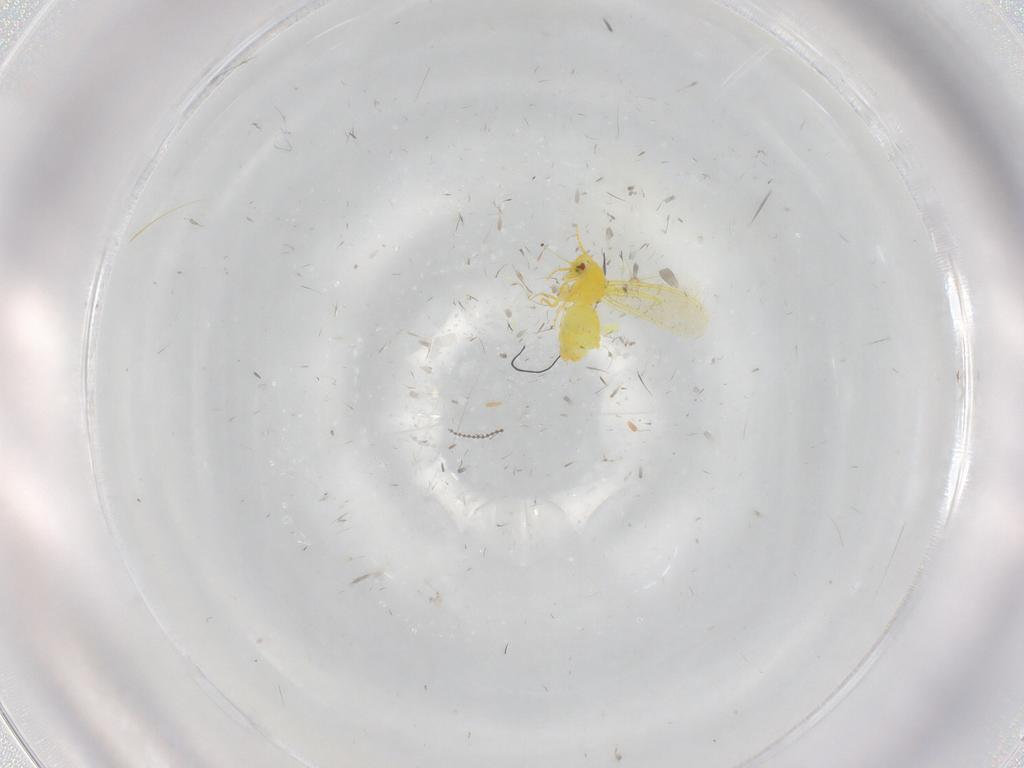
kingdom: Animalia
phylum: Arthropoda
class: Insecta
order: Hemiptera
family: Aleyrodidae
